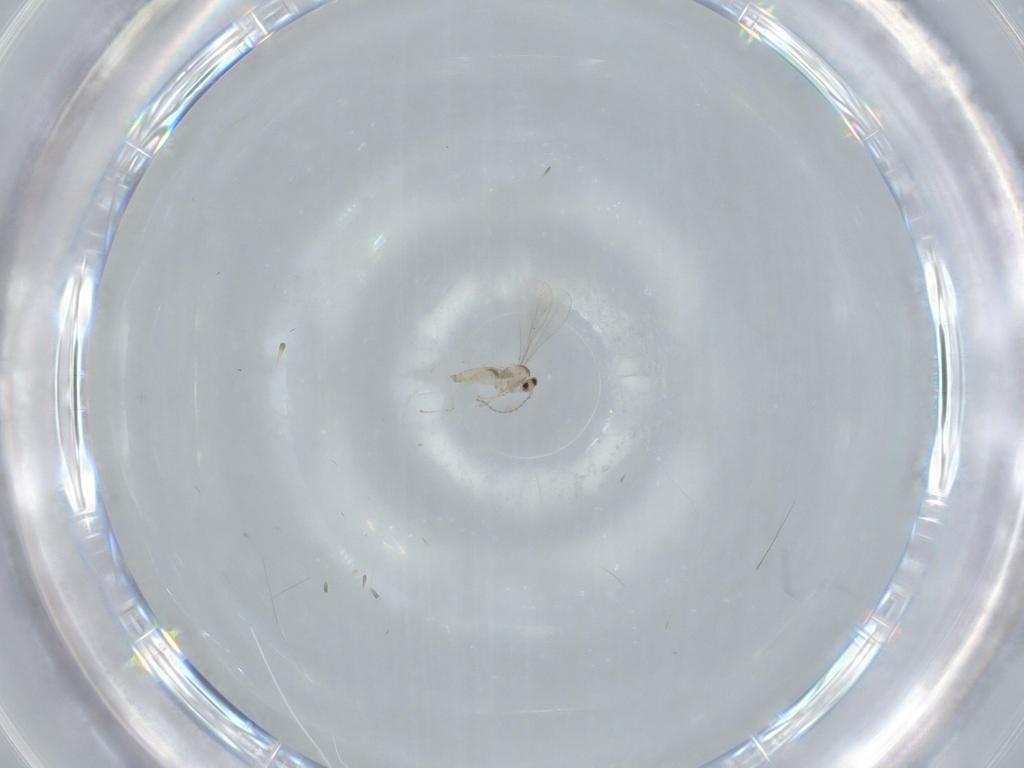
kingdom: Animalia
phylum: Arthropoda
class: Insecta
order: Diptera
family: Cecidomyiidae
